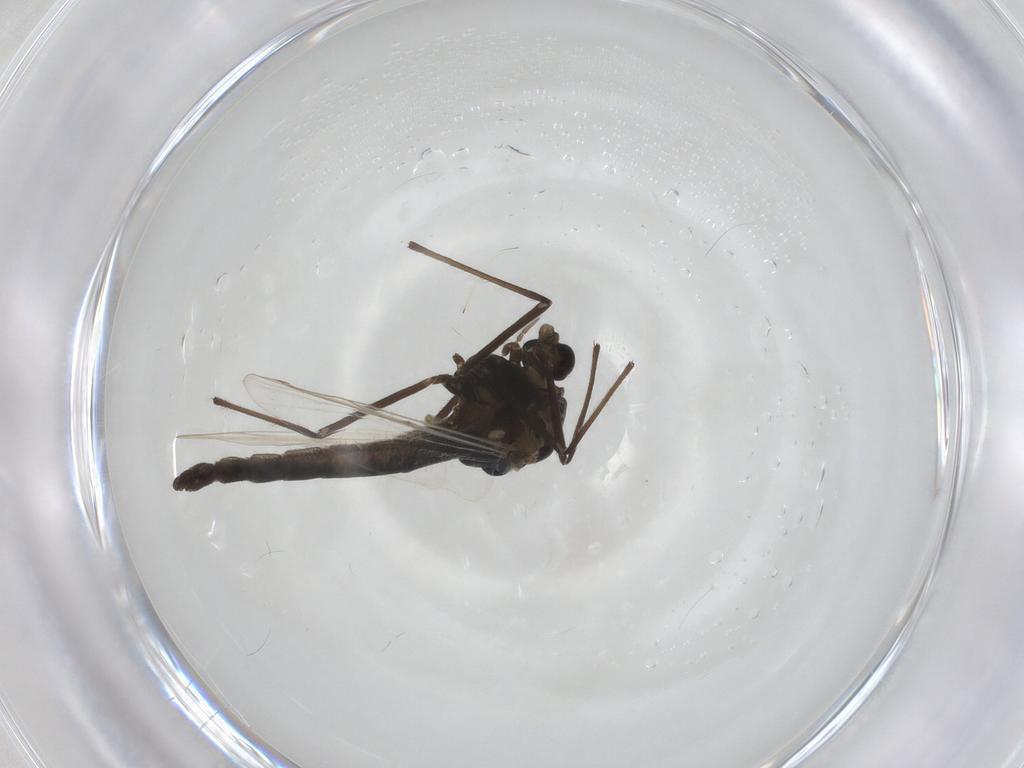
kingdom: Animalia
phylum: Arthropoda
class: Insecta
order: Diptera
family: Chironomidae
